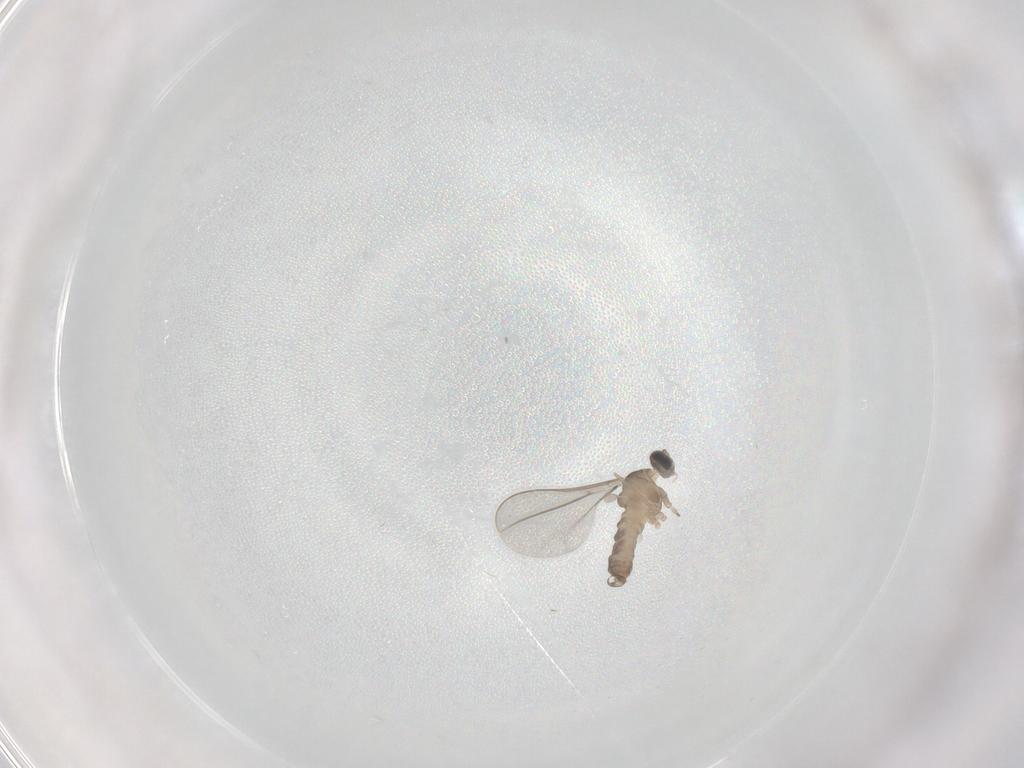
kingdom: Animalia
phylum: Arthropoda
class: Insecta
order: Diptera
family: Cecidomyiidae
